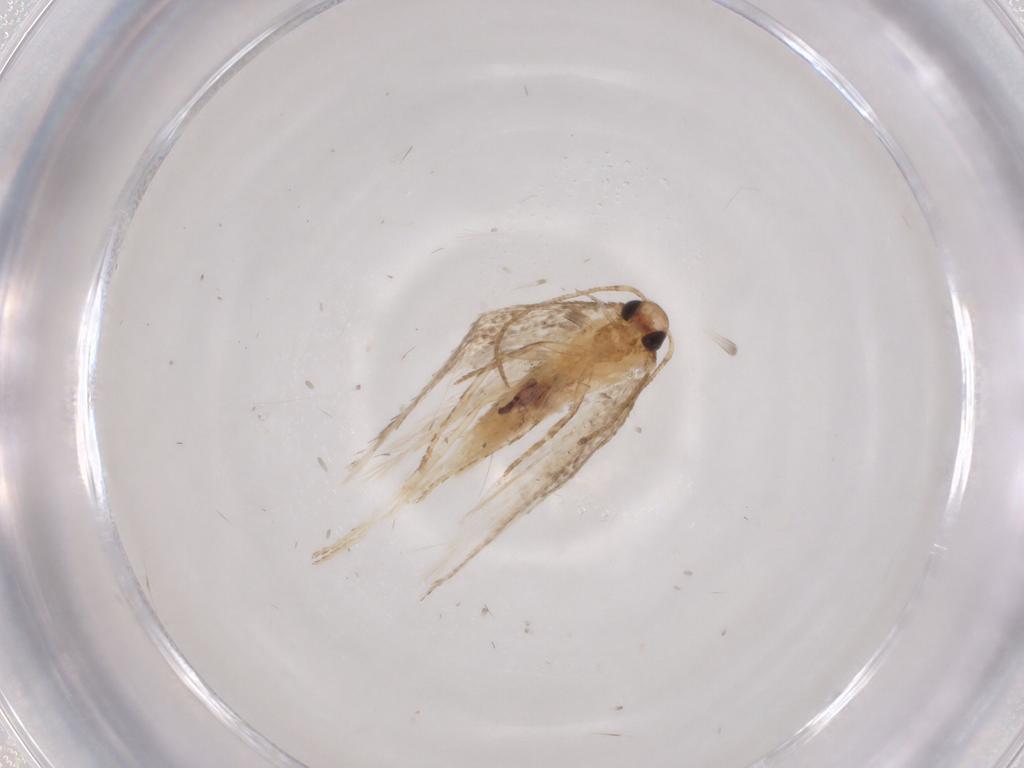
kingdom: Animalia
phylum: Arthropoda
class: Insecta
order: Lepidoptera
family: Gelechiidae
